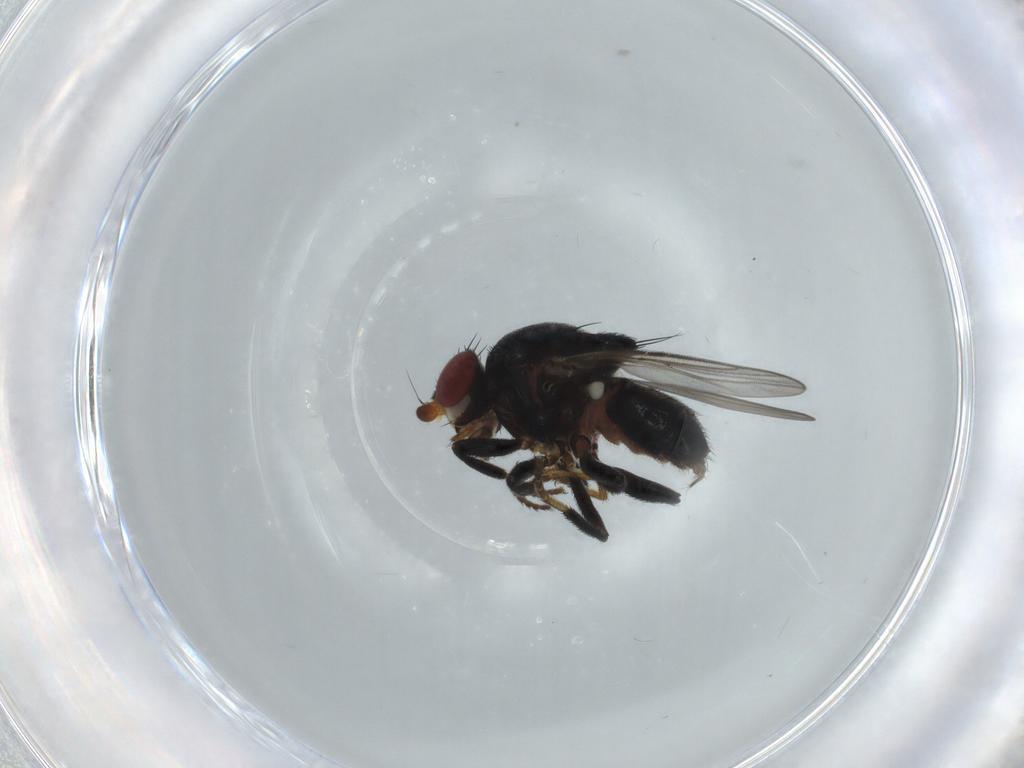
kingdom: Animalia
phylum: Arthropoda
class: Insecta
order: Diptera
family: Chloropidae
